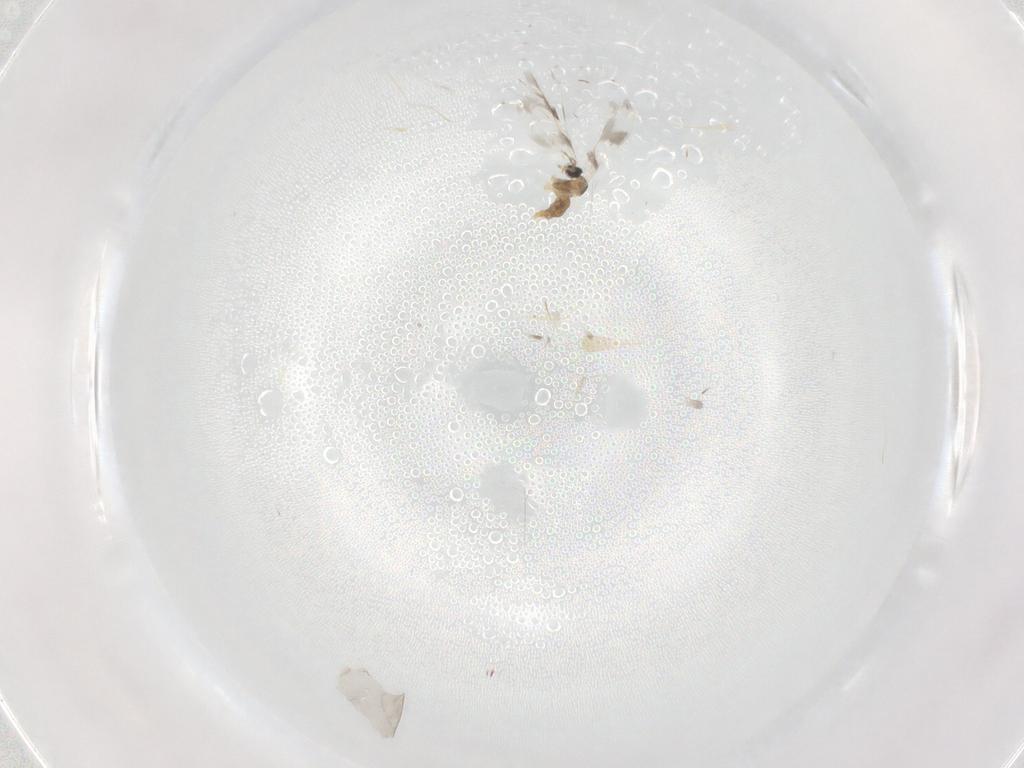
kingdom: Animalia
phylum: Arthropoda
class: Insecta
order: Diptera
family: Cecidomyiidae
